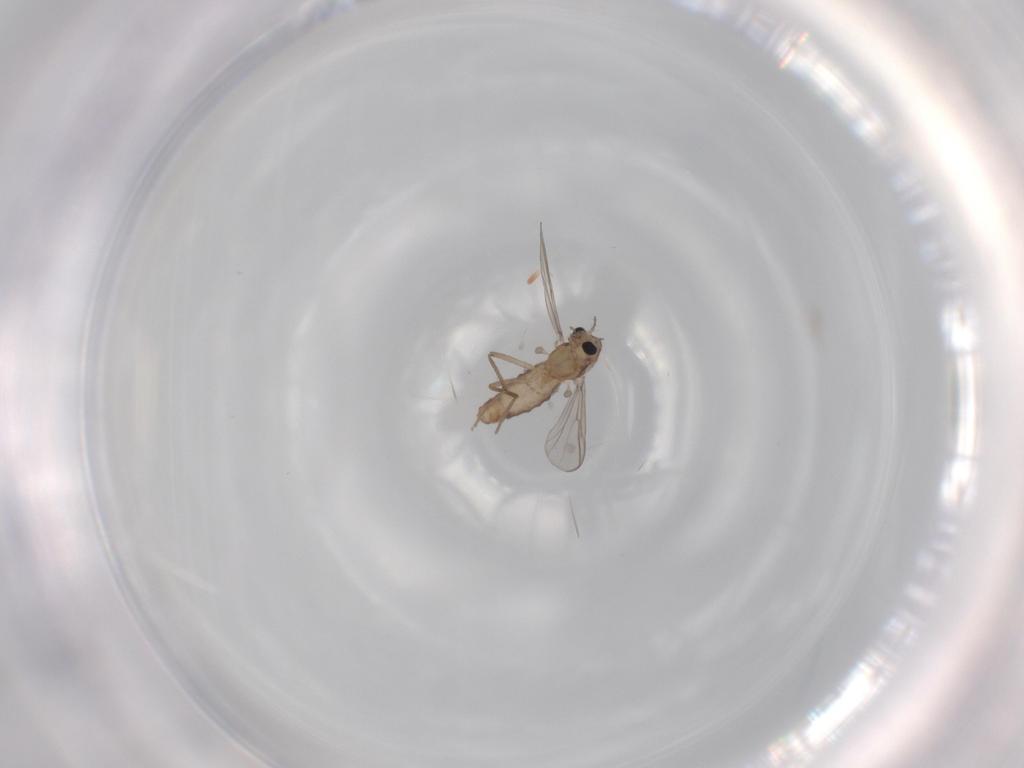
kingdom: Animalia
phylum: Arthropoda
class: Insecta
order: Diptera
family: Chironomidae
